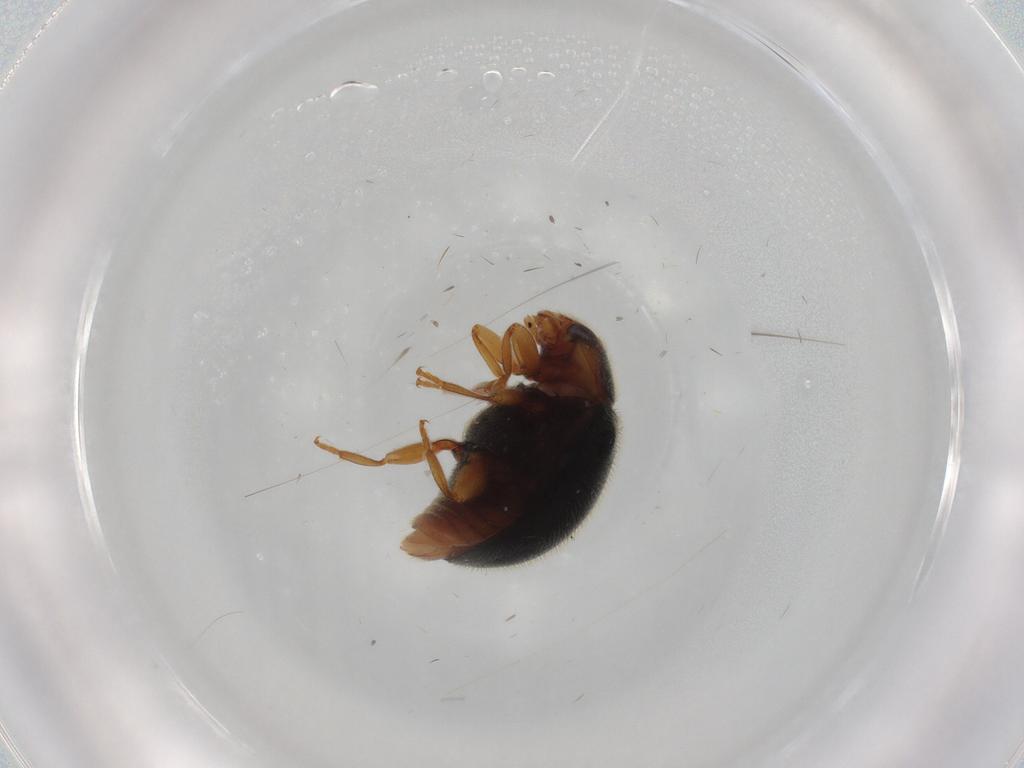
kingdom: Animalia
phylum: Arthropoda
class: Insecta
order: Coleoptera
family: Coccinellidae
